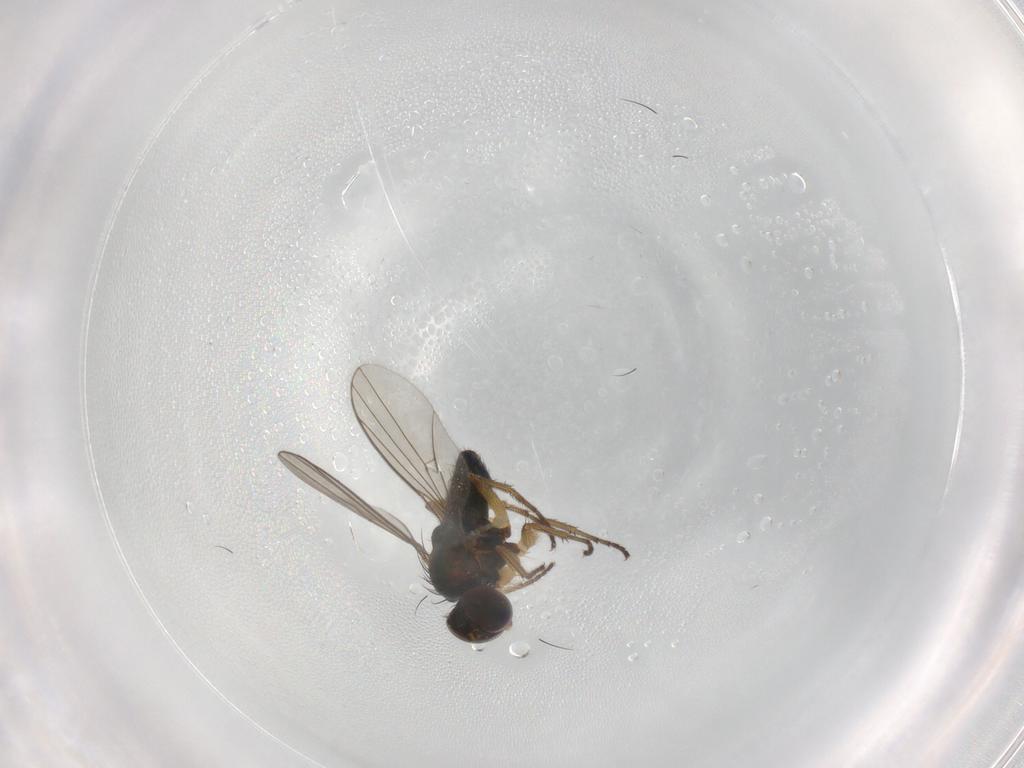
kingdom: Animalia
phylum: Arthropoda
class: Insecta
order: Diptera
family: Dolichopodidae
